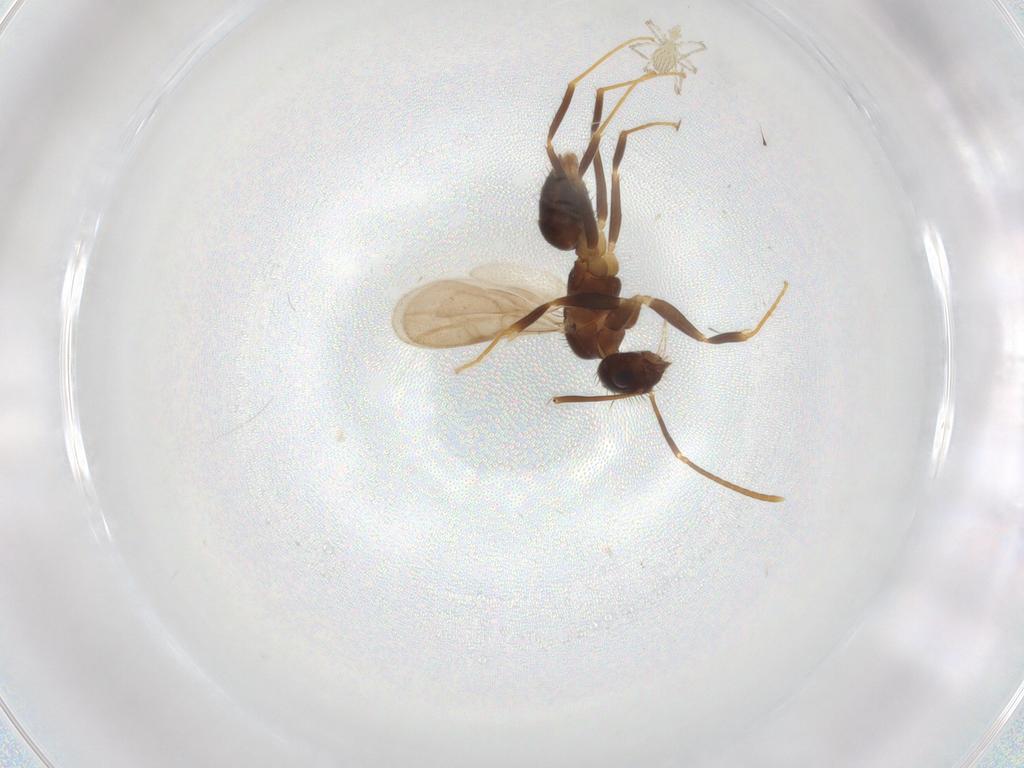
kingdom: Animalia
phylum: Arthropoda
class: Insecta
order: Hymenoptera
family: Formicidae
